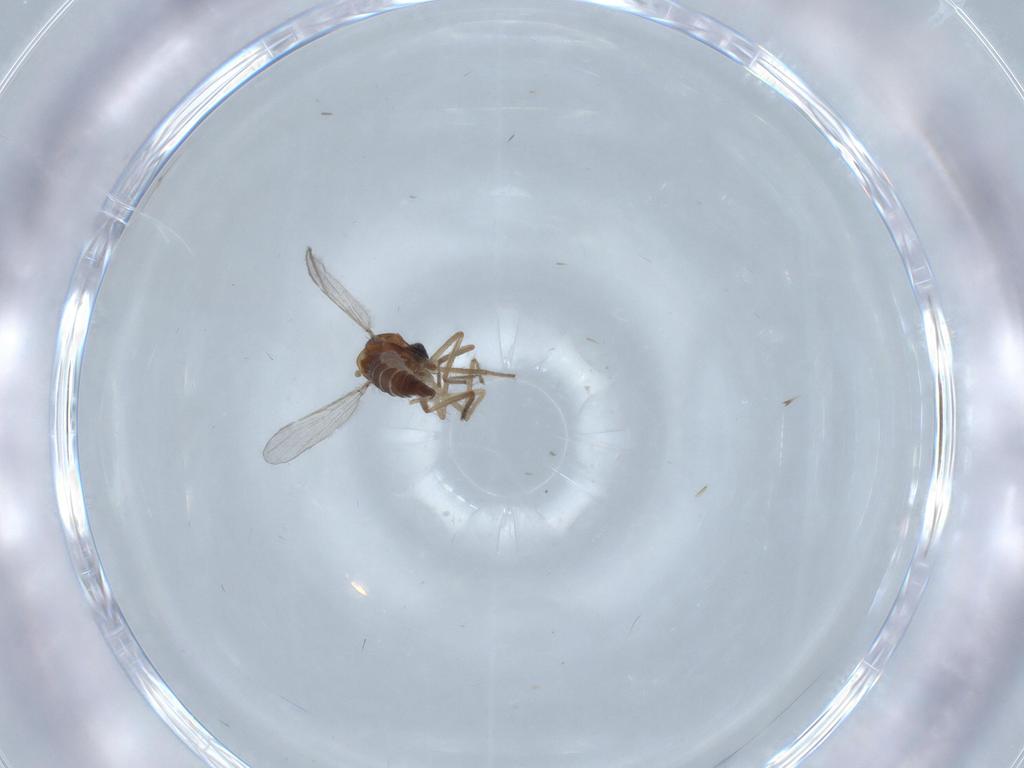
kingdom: Animalia
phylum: Arthropoda
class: Insecta
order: Diptera
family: Chironomidae
